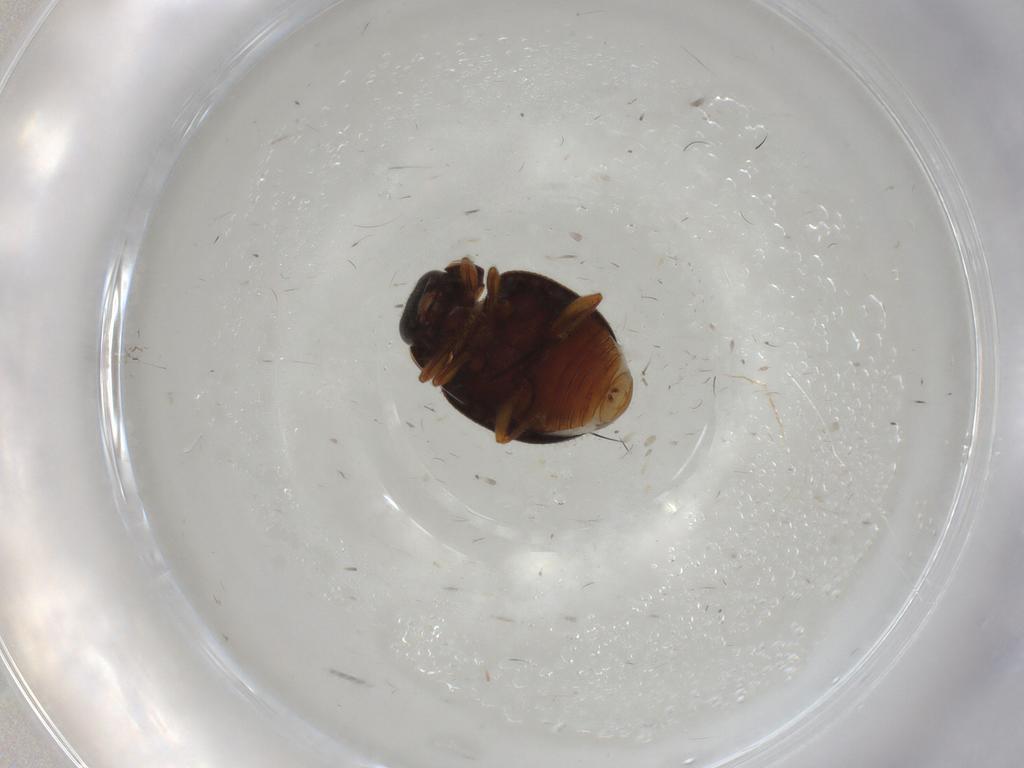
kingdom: Animalia
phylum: Arthropoda
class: Insecta
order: Coleoptera
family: Coccinellidae
